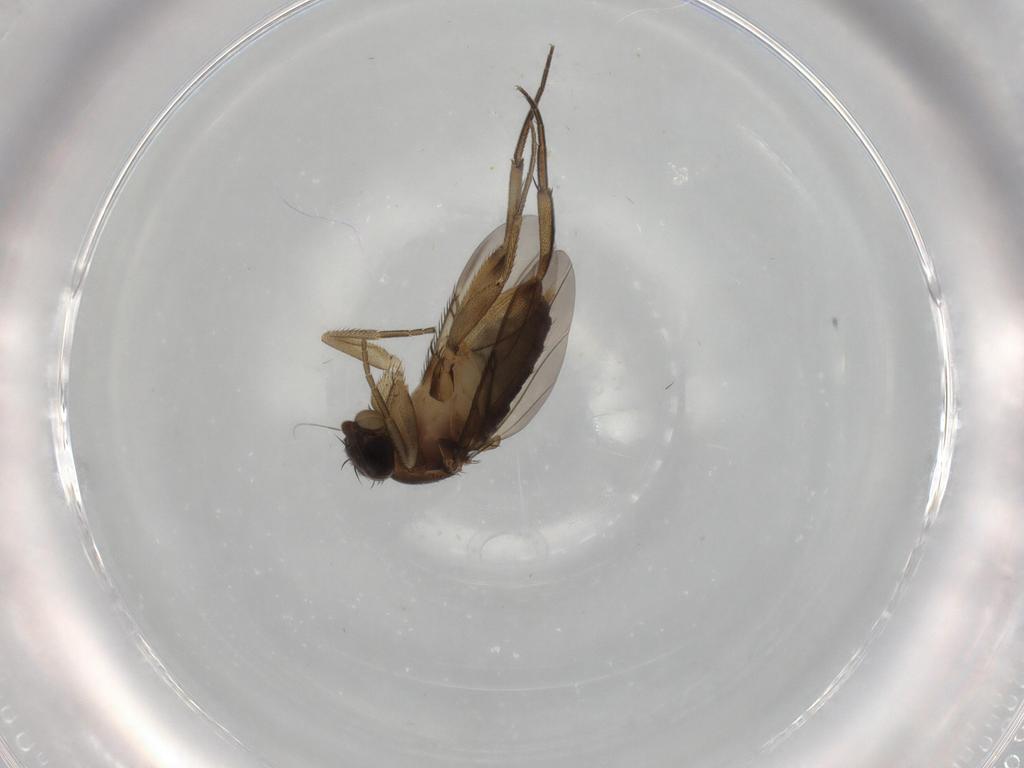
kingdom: Animalia
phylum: Arthropoda
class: Insecta
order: Diptera
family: Phoridae
